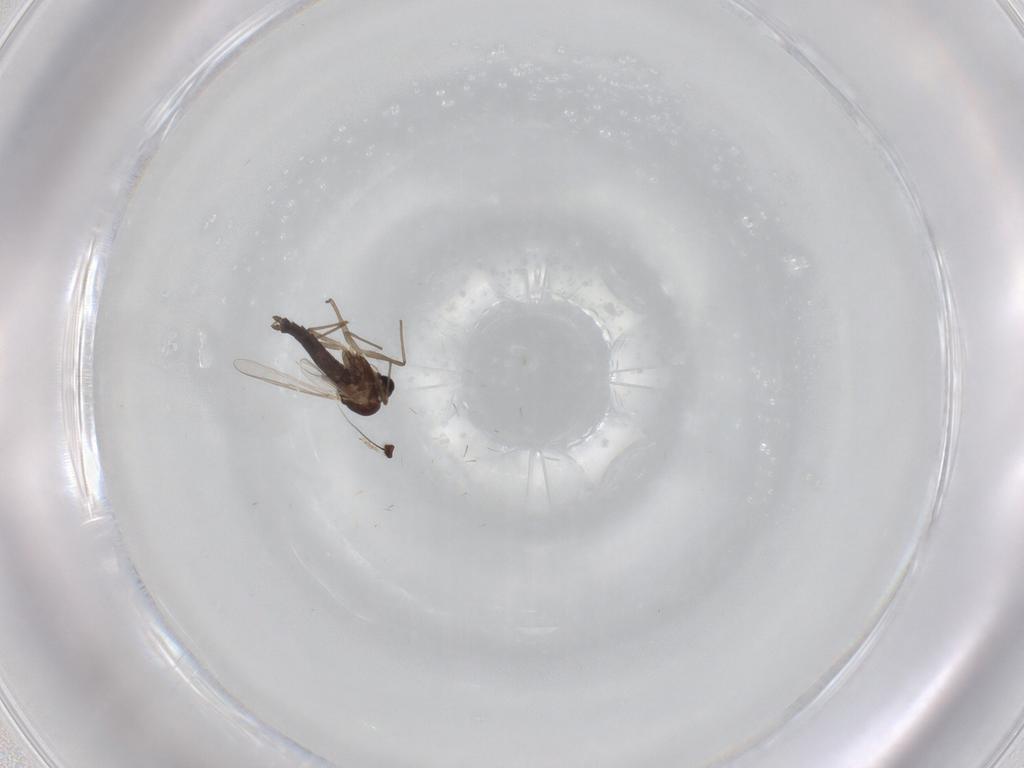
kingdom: Animalia
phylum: Arthropoda
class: Insecta
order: Diptera
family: Chironomidae
